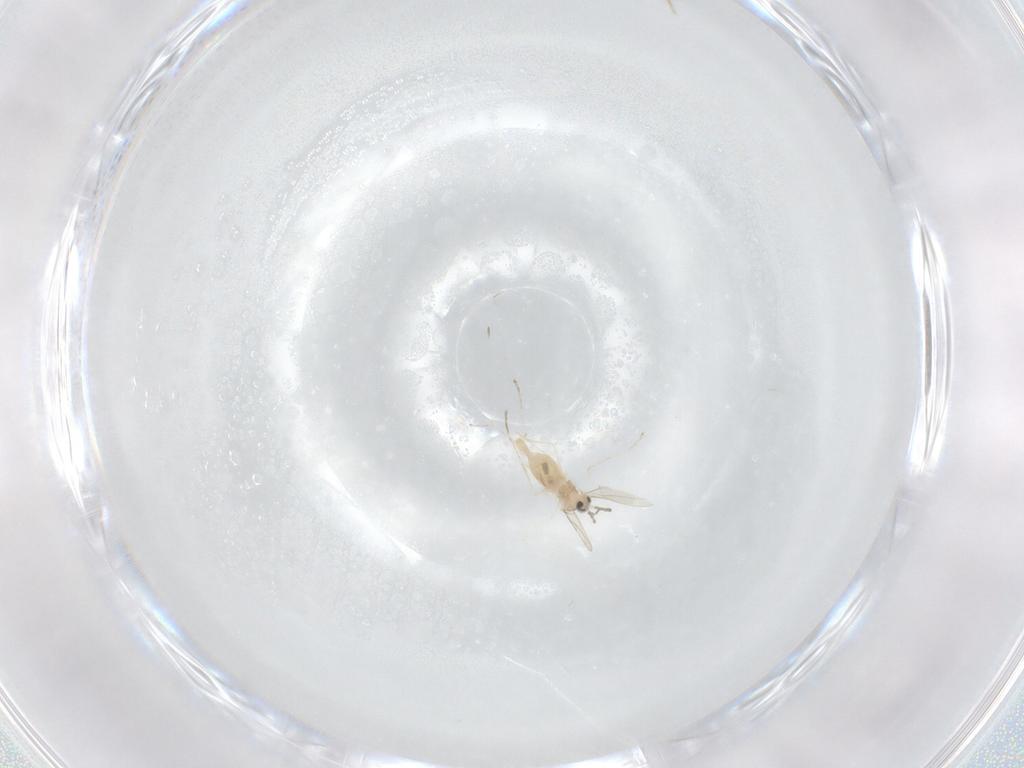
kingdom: Animalia
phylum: Arthropoda
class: Insecta
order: Diptera
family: Cecidomyiidae
